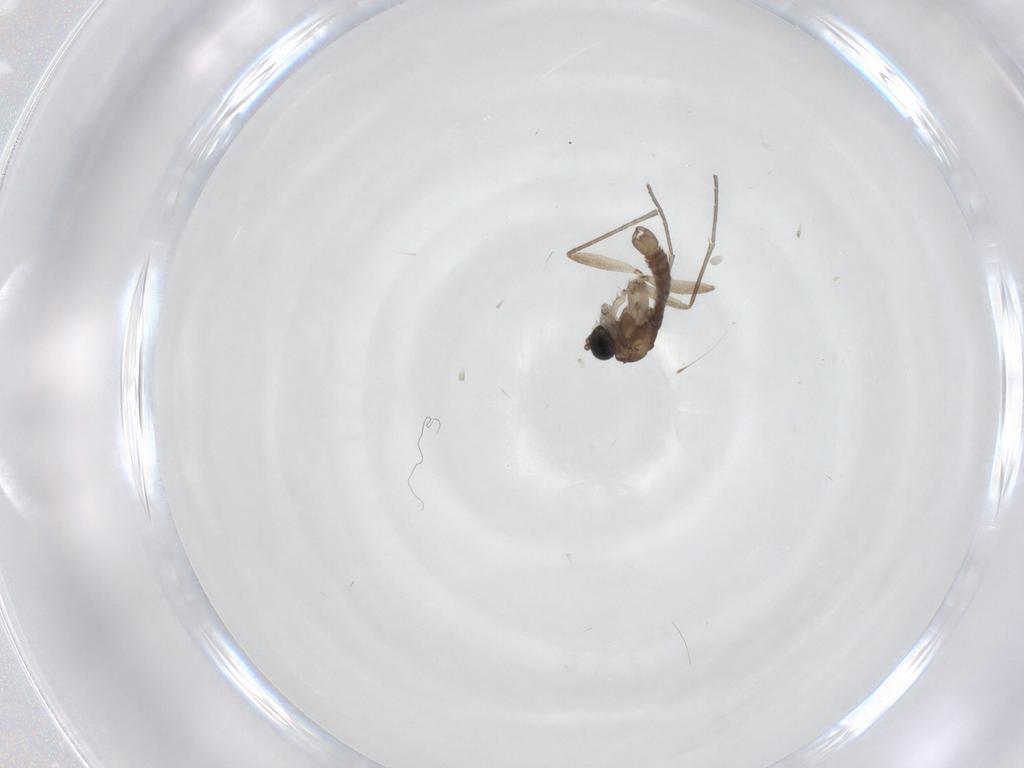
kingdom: Animalia
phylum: Arthropoda
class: Insecta
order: Diptera
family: Sciaridae
